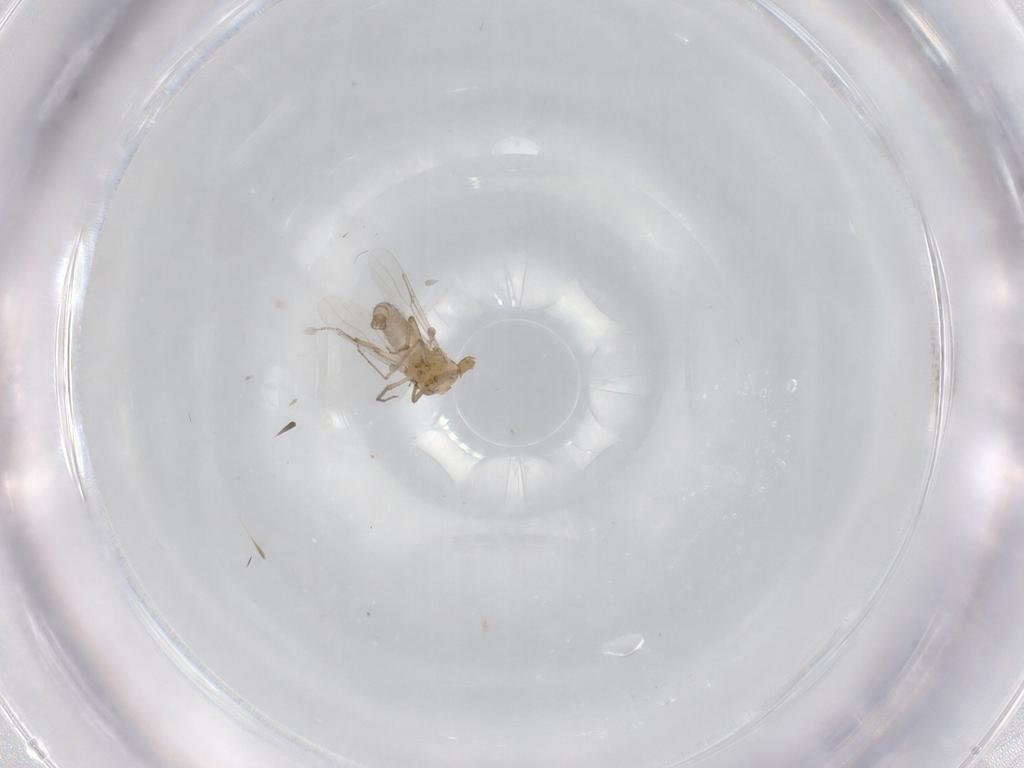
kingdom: Animalia
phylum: Arthropoda
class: Insecta
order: Diptera
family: Ceratopogonidae
